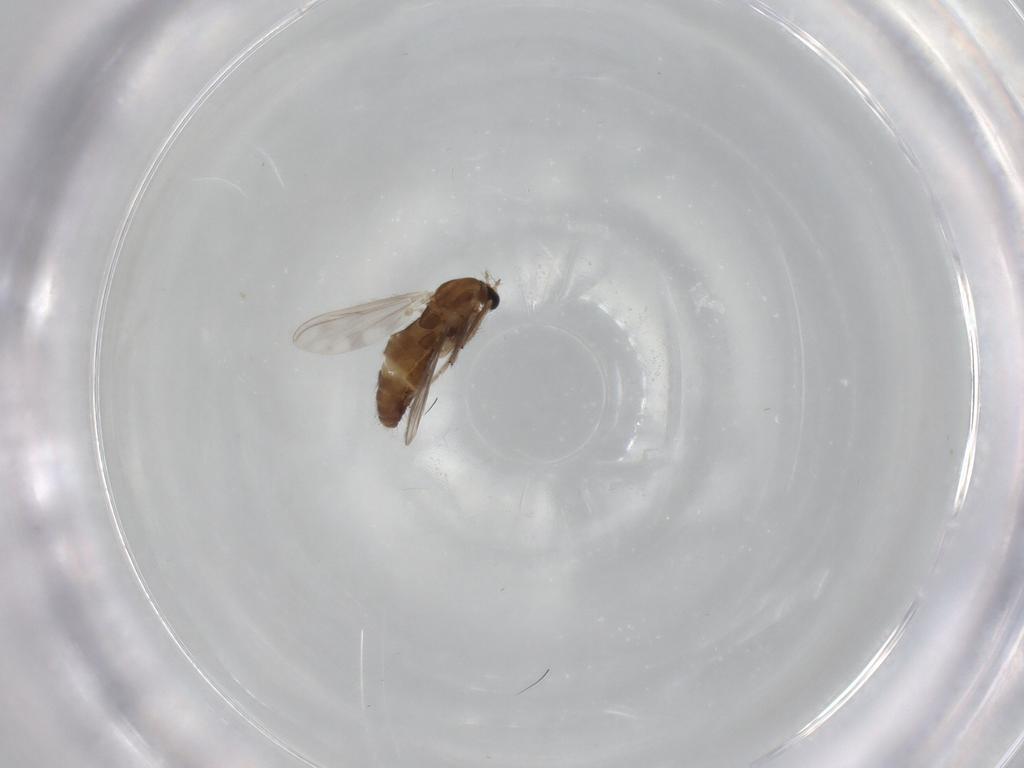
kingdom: Animalia
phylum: Arthropoda
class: Insecta
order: Diptera
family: Chironomidae
